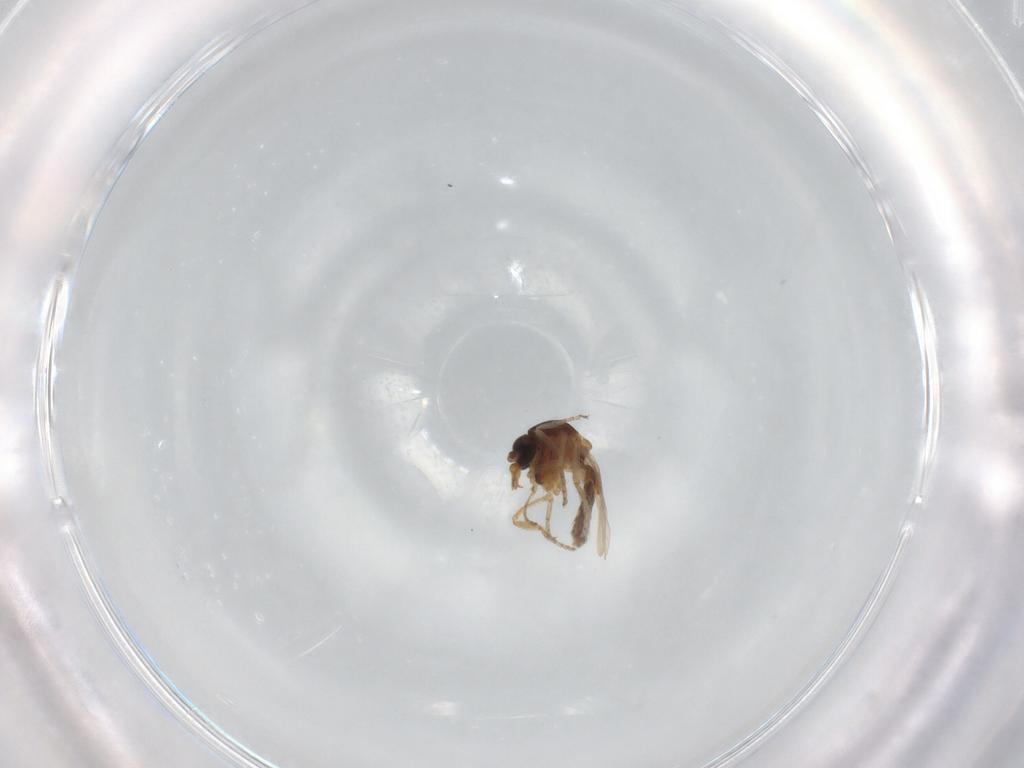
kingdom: Animalia
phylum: Arthropoda
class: Insecta
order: Diptera
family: Ceratopogonidae
